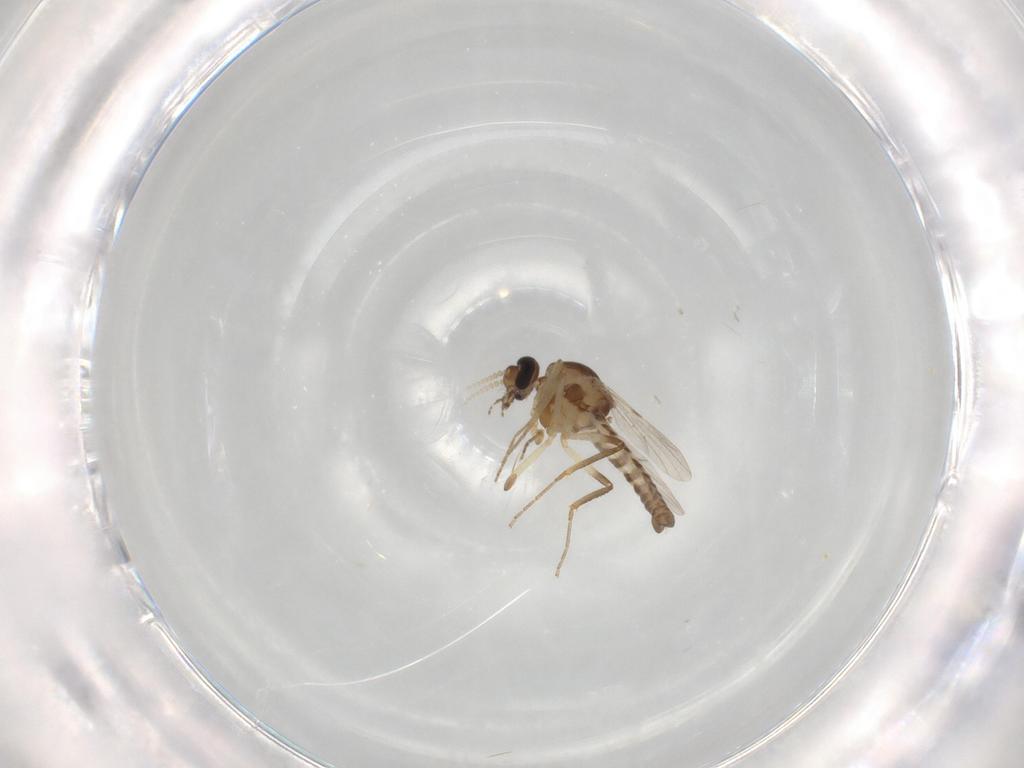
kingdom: Animalia
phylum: Arthropoda
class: Insecta
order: Diptera
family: Ceratopogonidae
